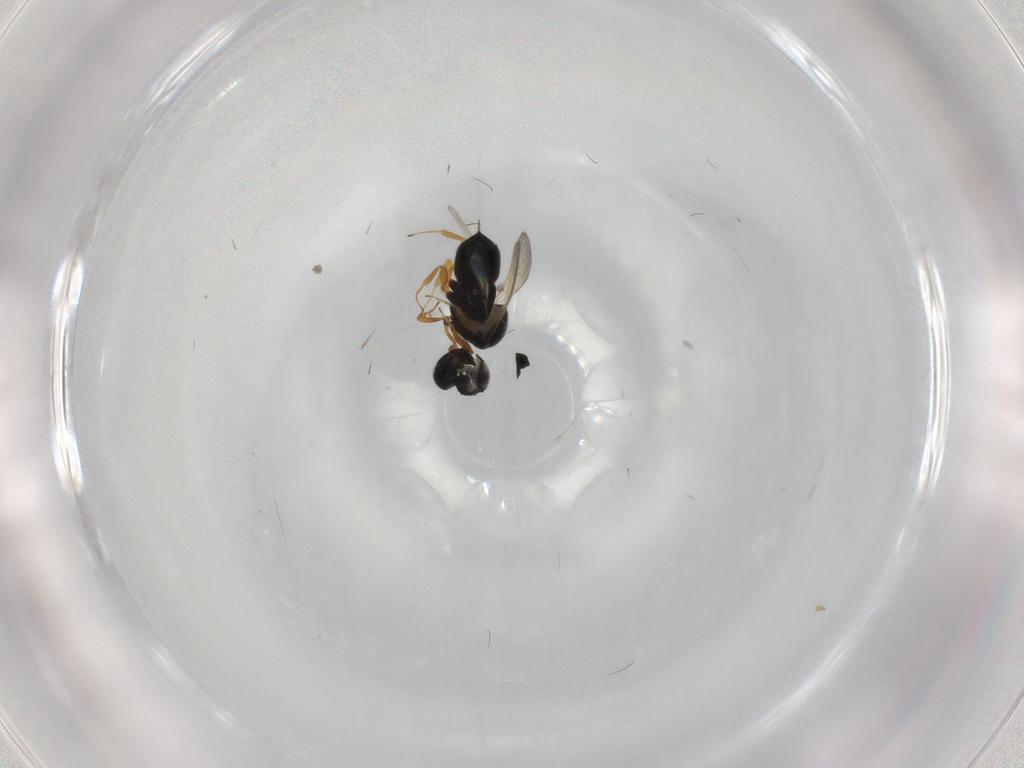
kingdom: Animalia
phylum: Arthropoda
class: Insecta
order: Hymenoptera
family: Scelionidae
